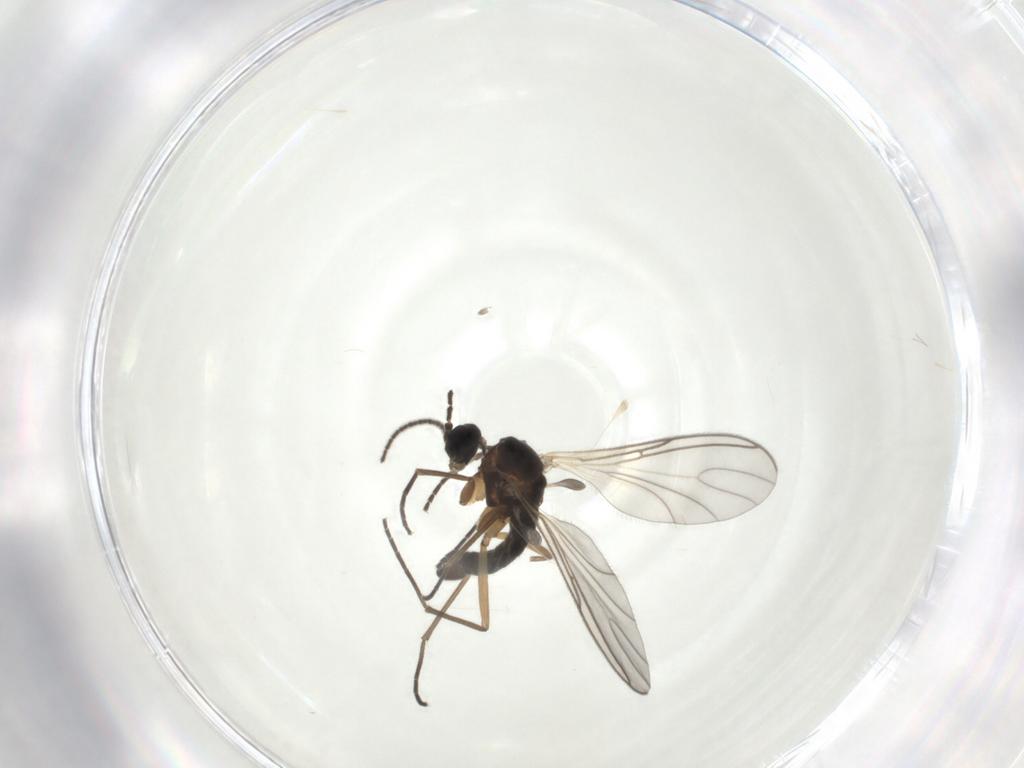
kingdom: Animalia
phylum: Arthropoda
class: Insecta
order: Diptera
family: Sciaridae
